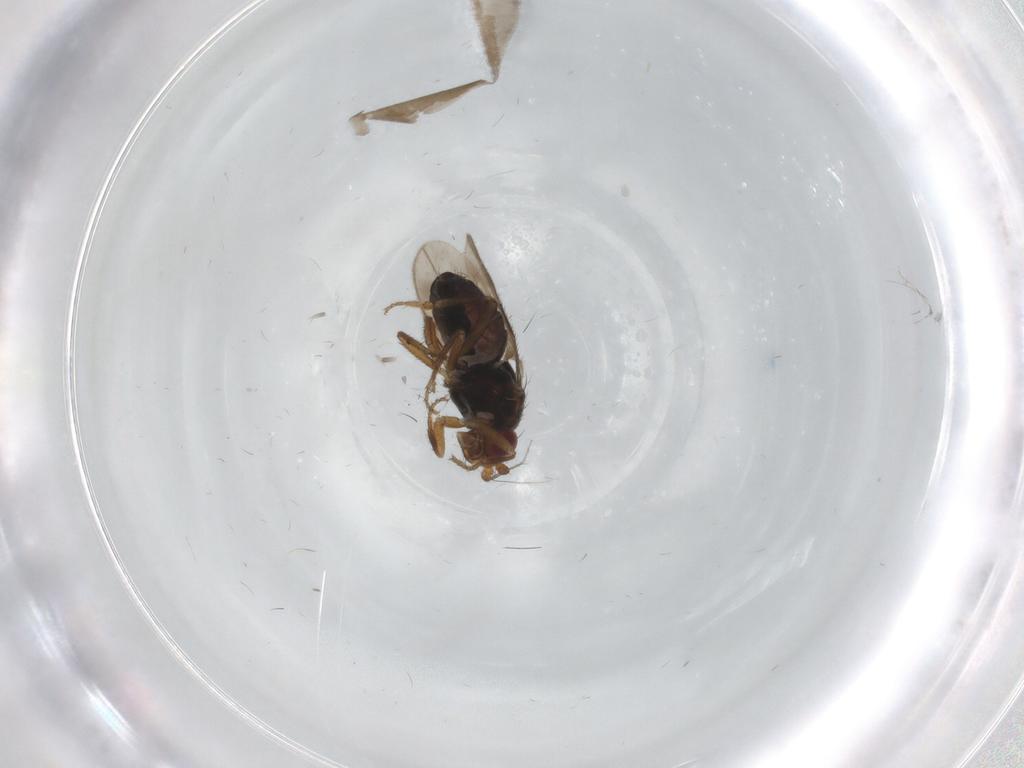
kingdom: Animalia
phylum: Arthropoda
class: Insecta
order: Diptera
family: Sphaeroceridae
